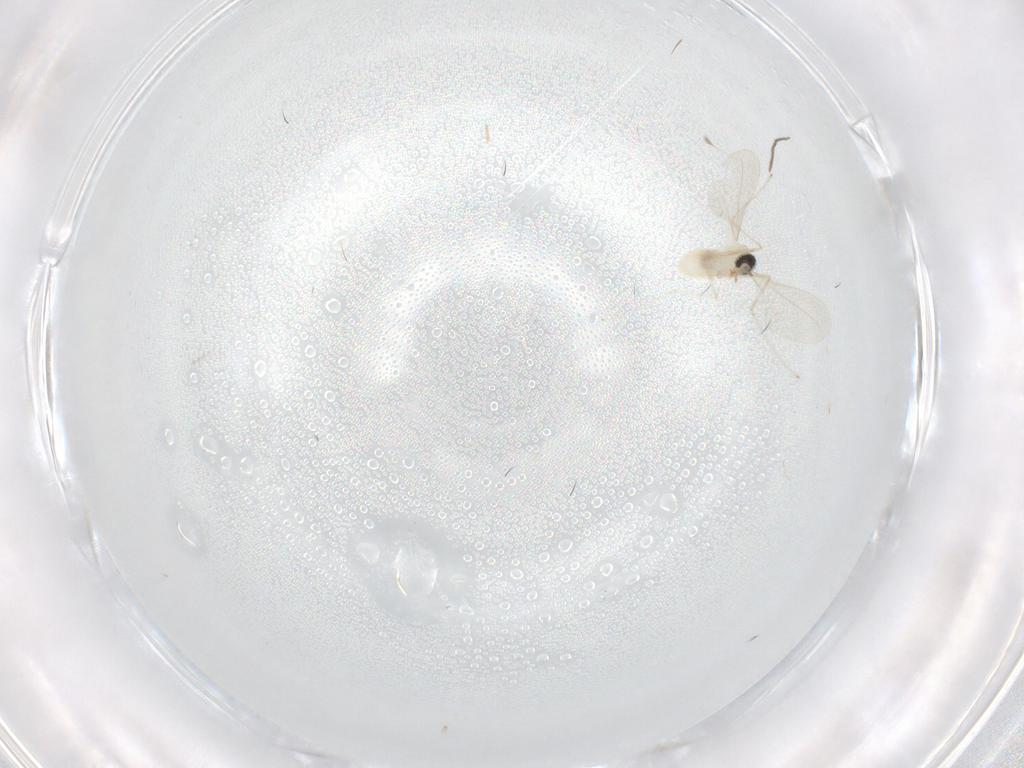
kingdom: Animalia
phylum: Arthropoda
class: Insecta
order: Diptera
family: Cecidomyiidae
